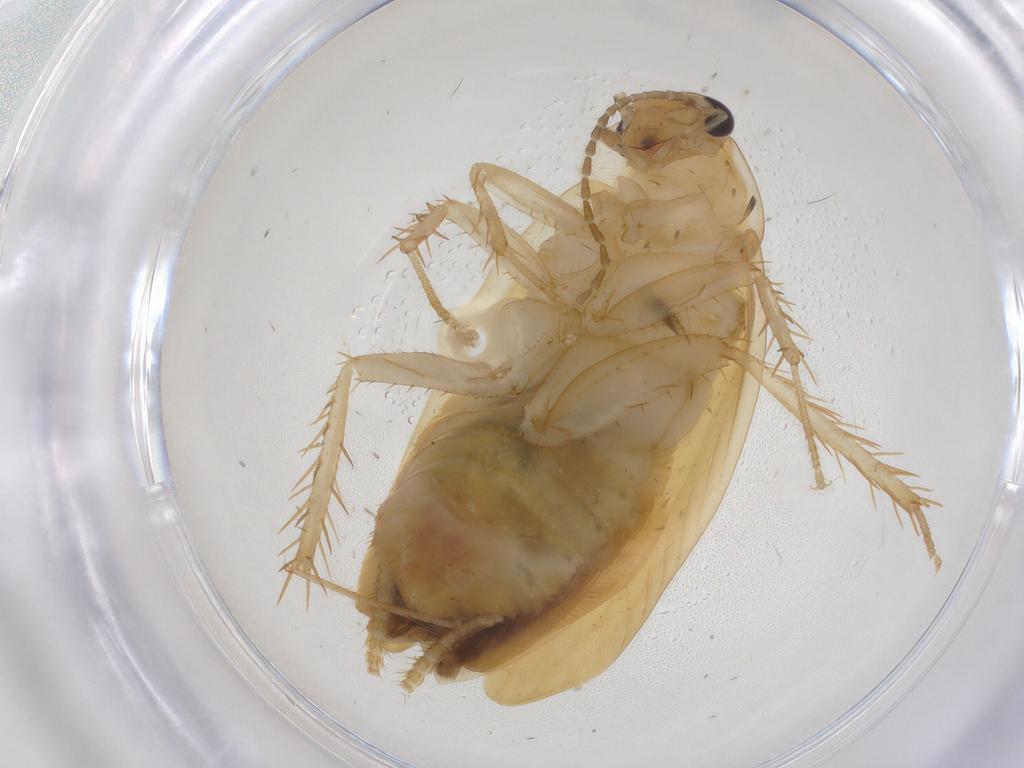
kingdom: Animalia
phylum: Arthropoda
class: Insecta
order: Blattodea
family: Blaberidae
